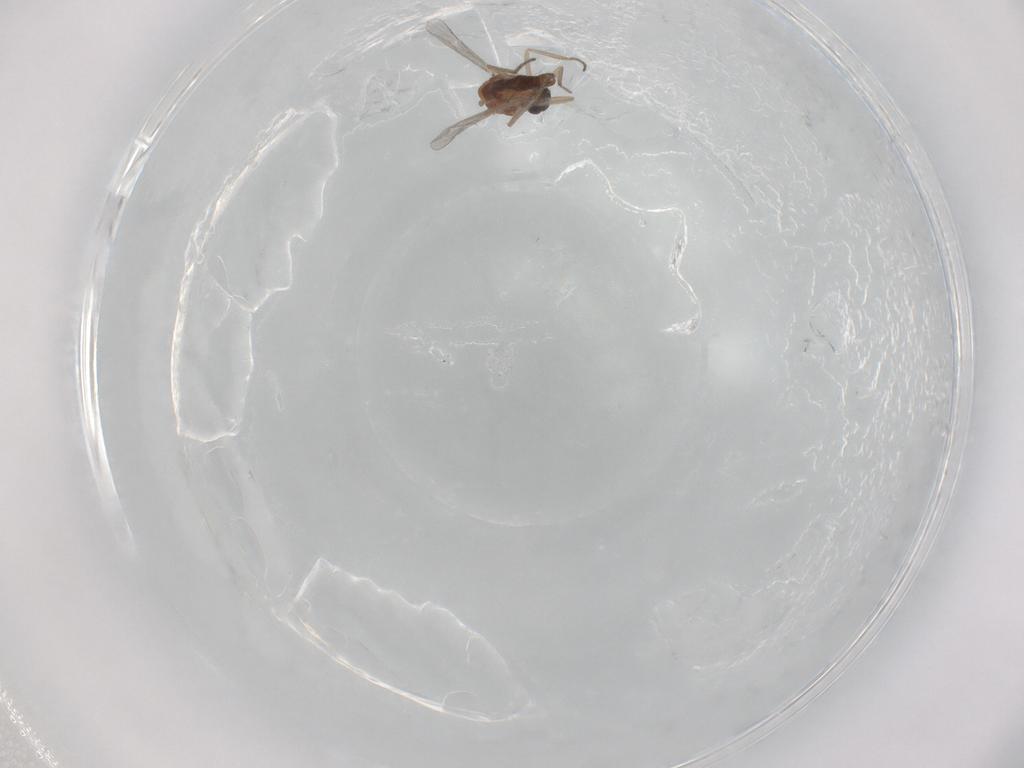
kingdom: Animalia
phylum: Arthropoda
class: Insecta
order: Diptera
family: Ceratopogonidae
